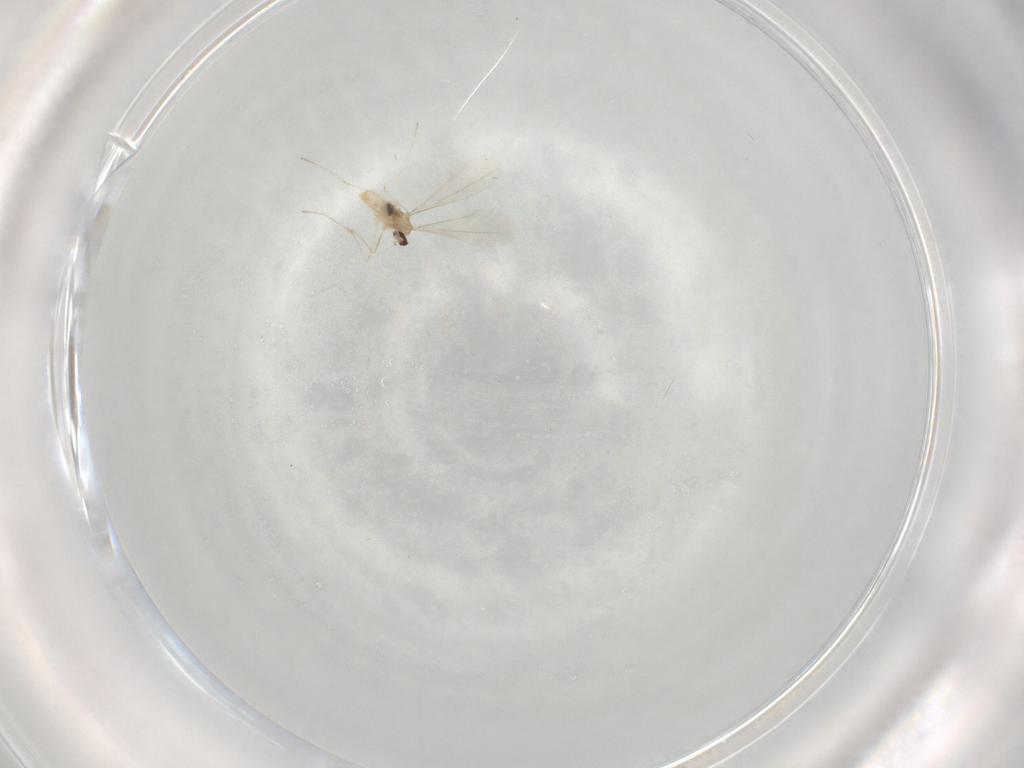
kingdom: Animalia
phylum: Arthropoda
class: Insecta
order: Diptera
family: Cecidomyiidae
